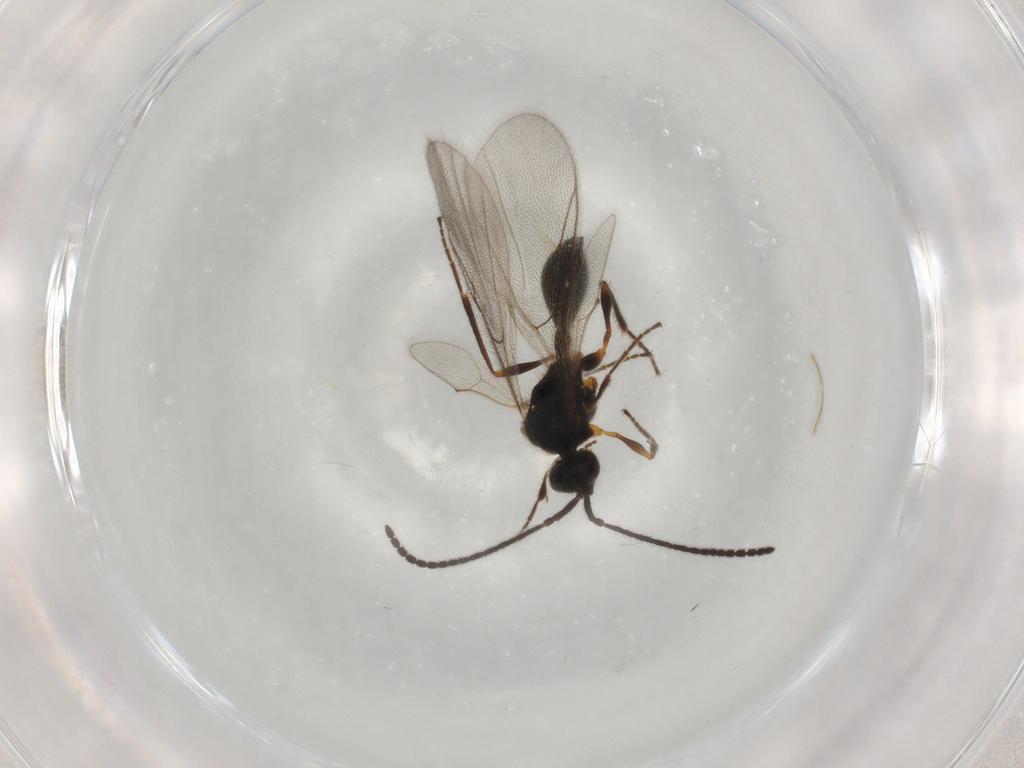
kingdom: Animalia
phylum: Arthropoda
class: Insecta
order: Hymenoptera
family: Diapriidae
